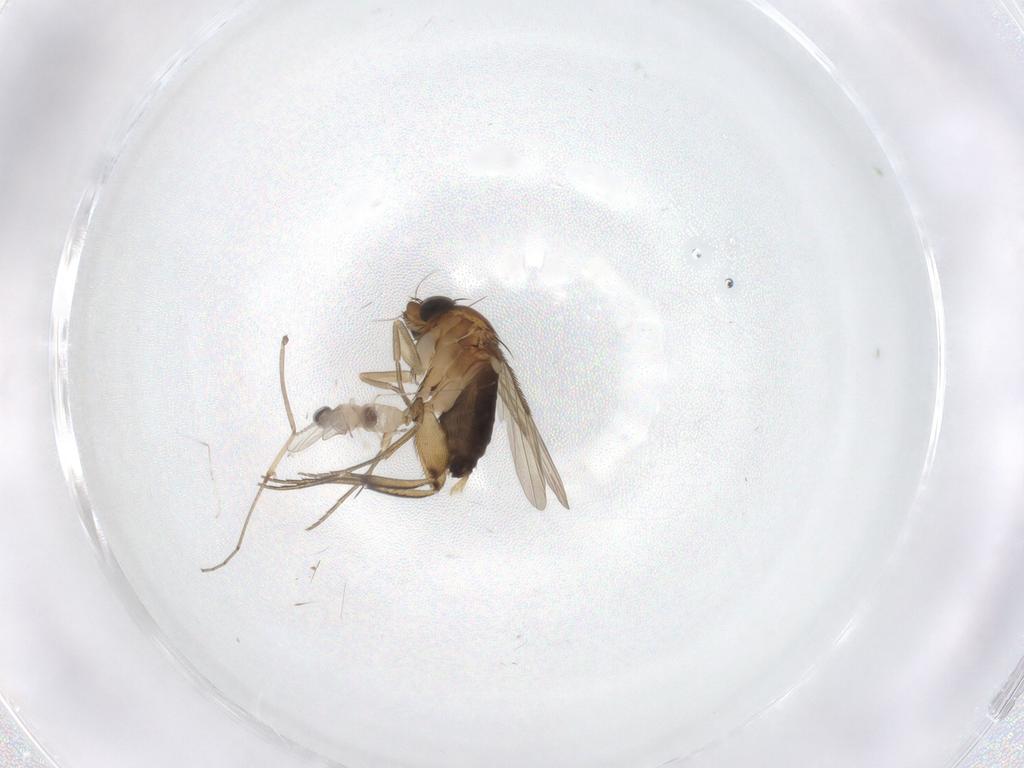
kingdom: Animalia
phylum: Arthropoda
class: Insecta
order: Diptera
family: Cecidomyiidae
